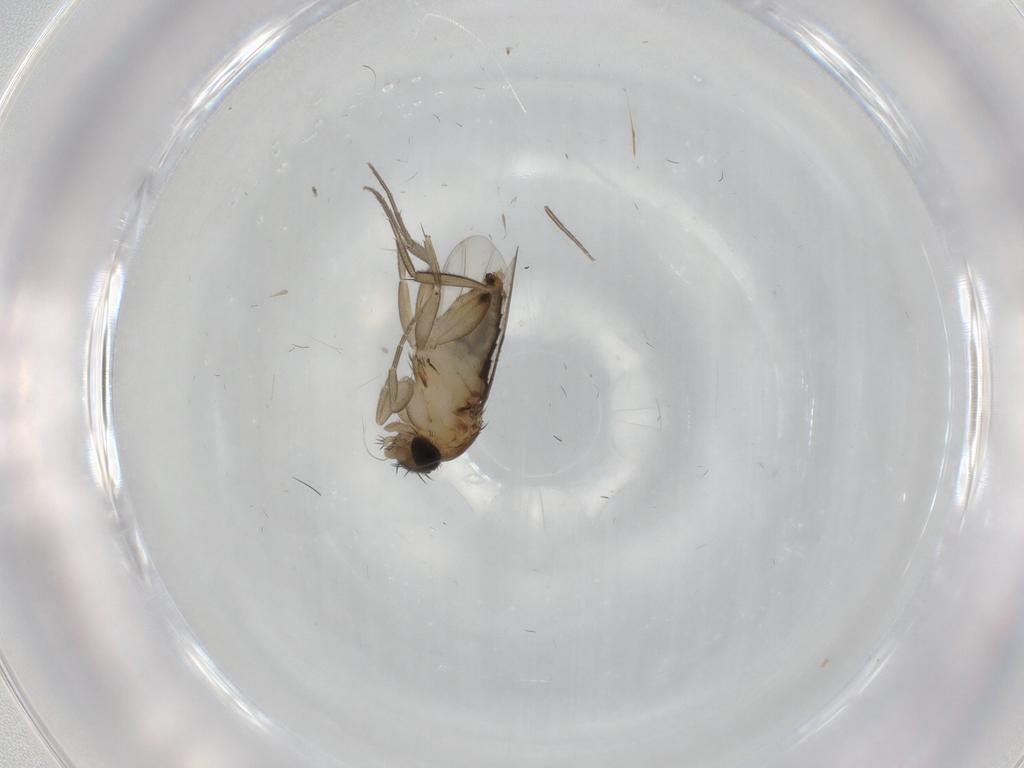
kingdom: Animalia
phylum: Arthropoda
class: Insecta
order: Diptera
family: Phoridae
